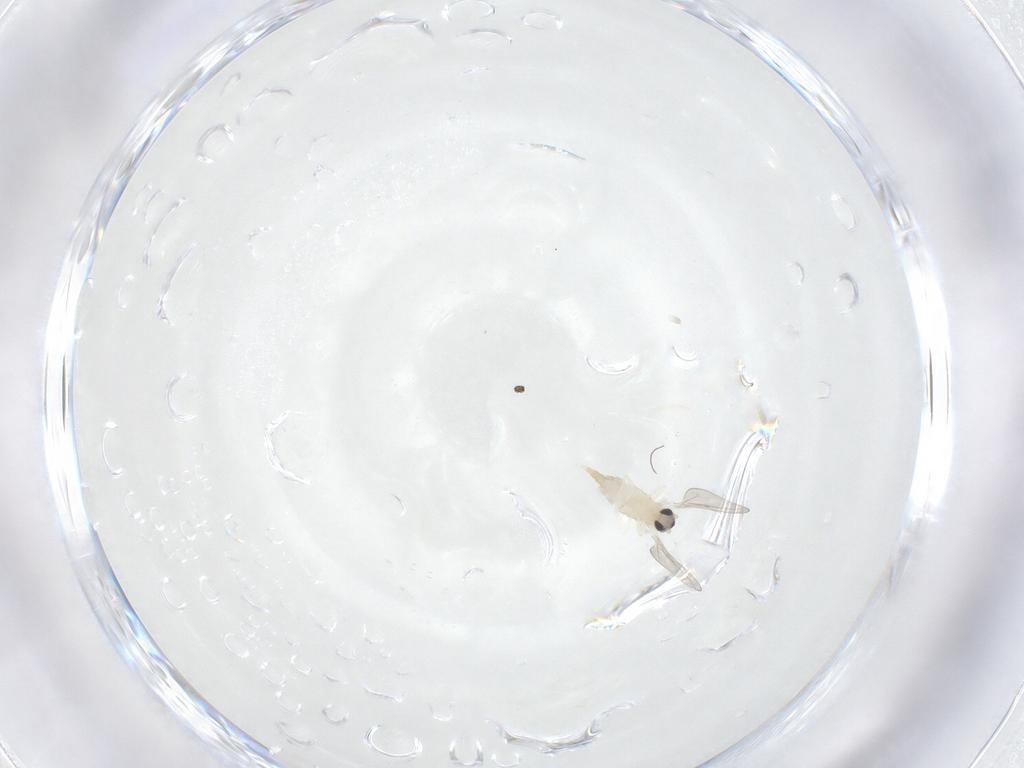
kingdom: Animalia
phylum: Arthropoda
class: Insecta
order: Diptera
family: Cecidomyiidae
